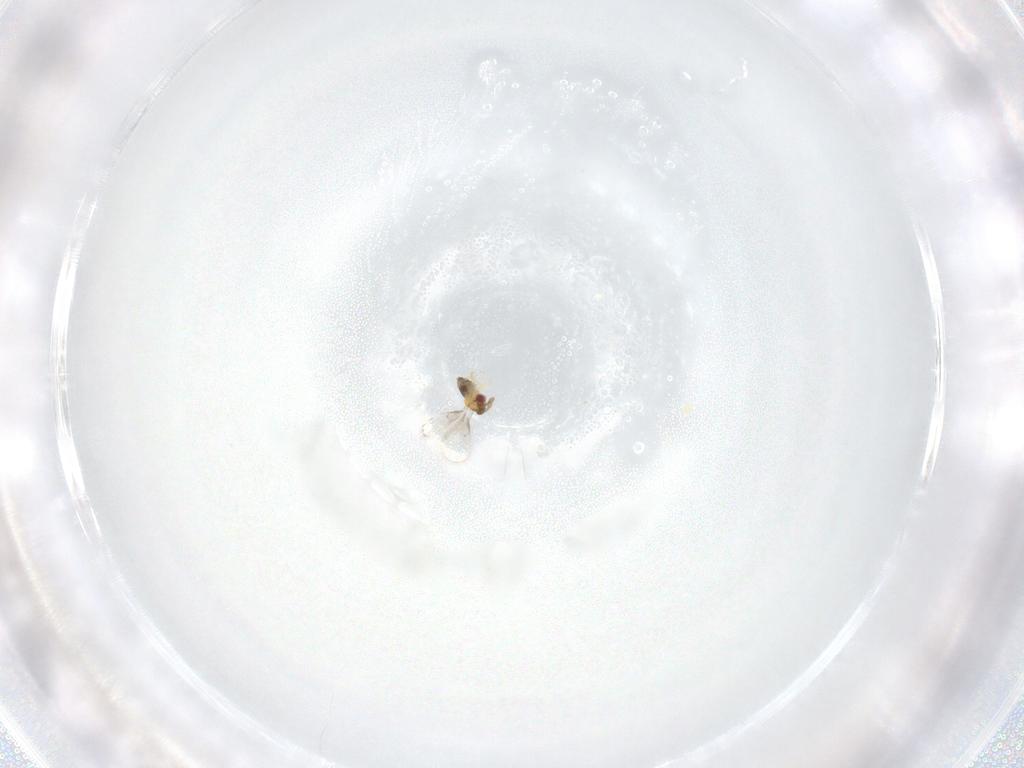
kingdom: Animalia
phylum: Arthropoda
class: Insecta
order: Hymenoptera
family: Trichogrammatidae
